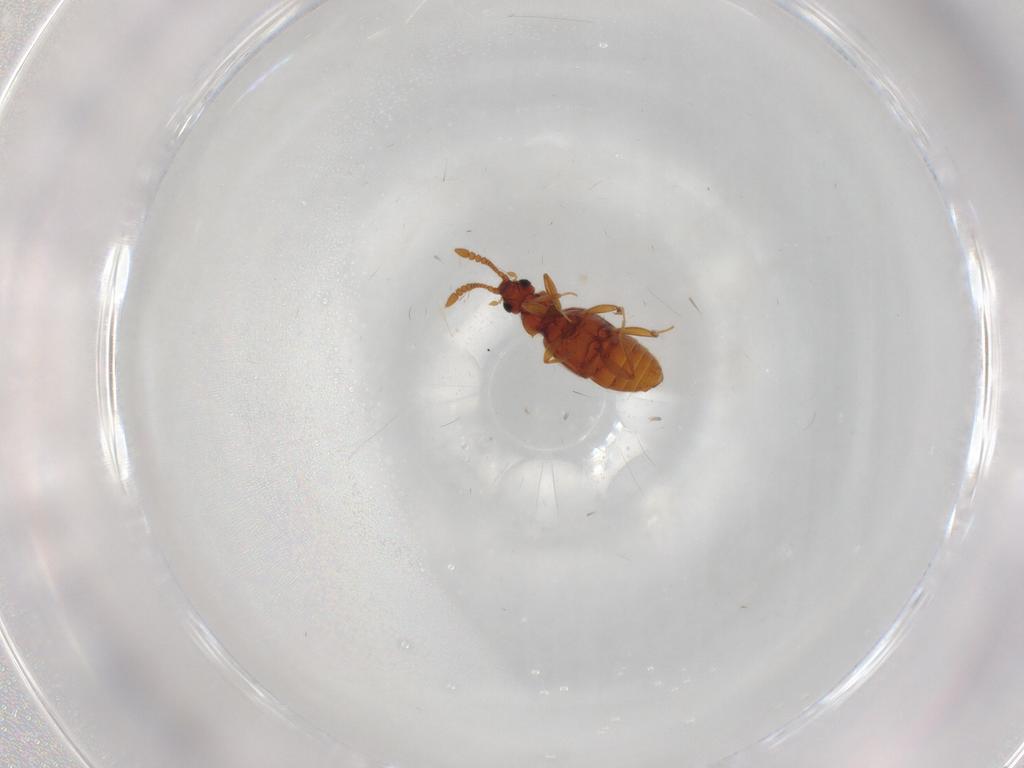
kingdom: Animalia
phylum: Arthropoda
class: Insecta
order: Coleoptera
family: Staphylinidae
